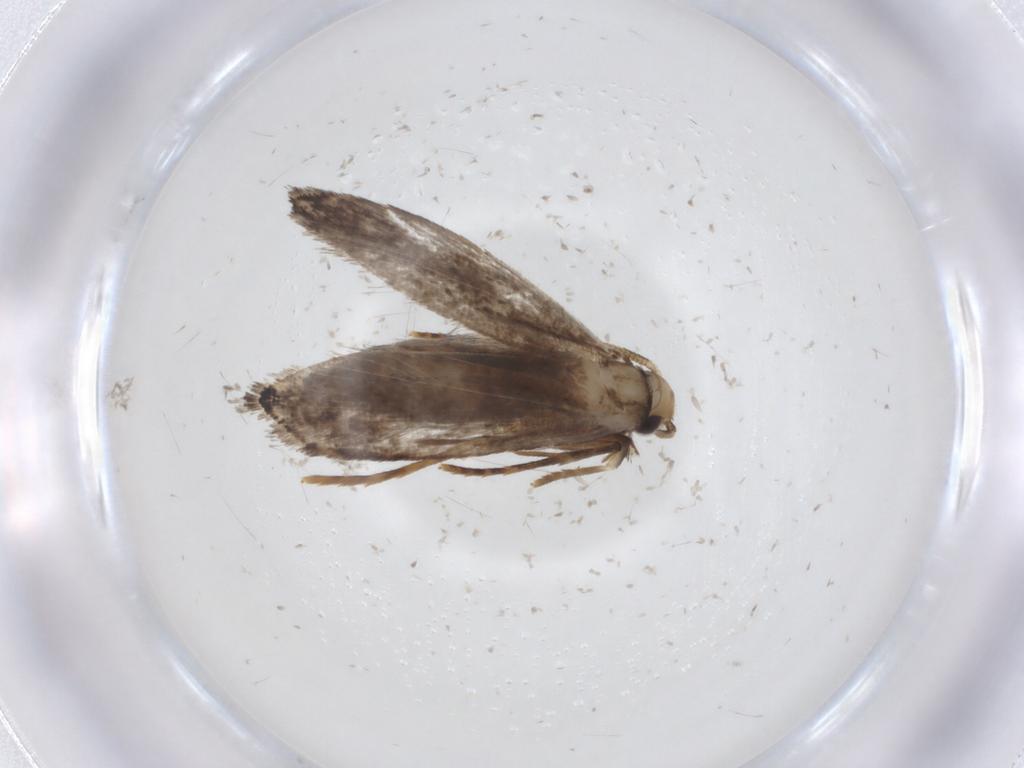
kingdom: Animalia
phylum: Arthropoda
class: Insecta
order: Lepidoptera
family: Tineidae
